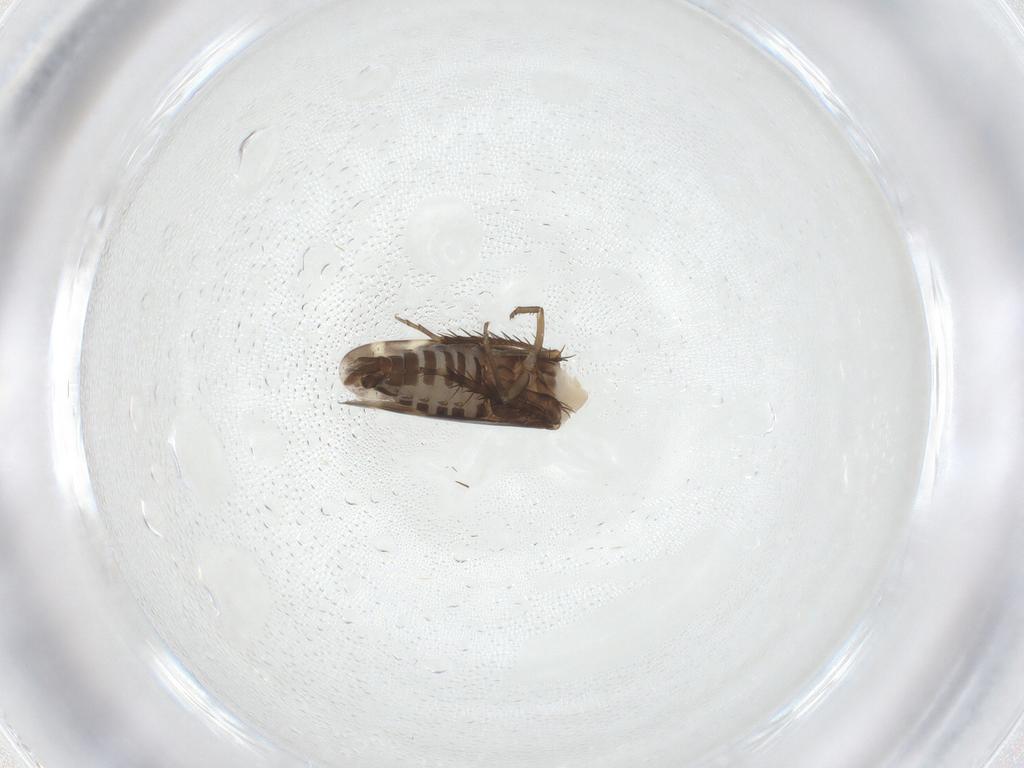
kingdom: Animalia
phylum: Arthropoda
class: Insecta
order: Hemiptera
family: Cicadellidae
